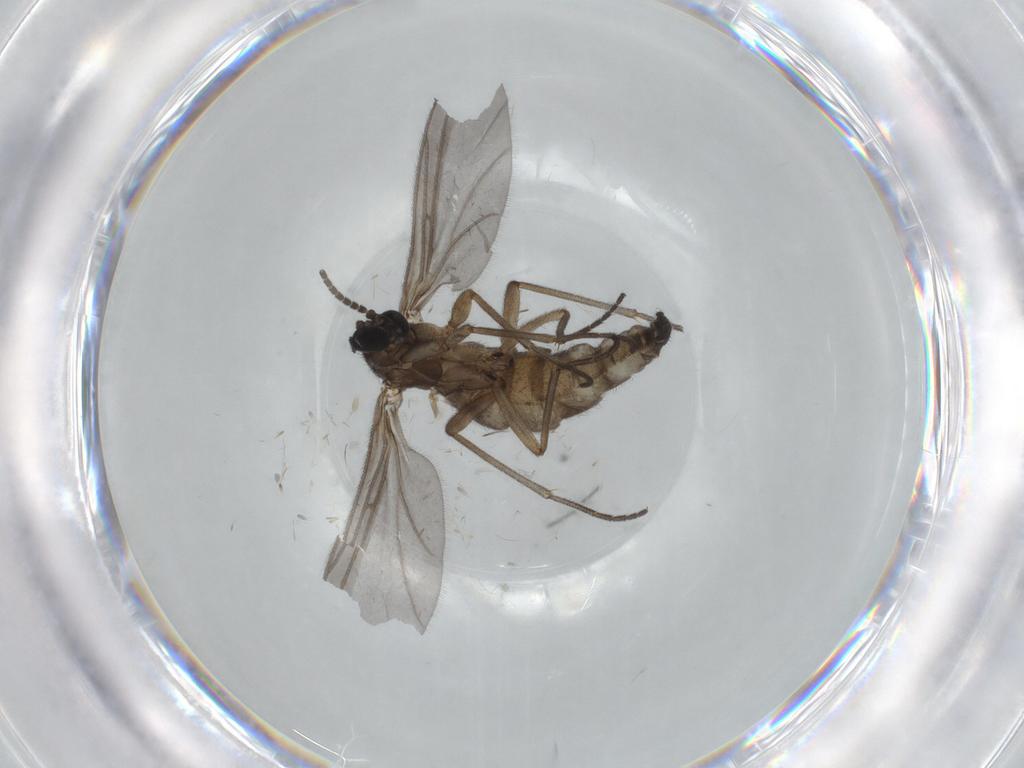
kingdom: Animalia
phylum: Arthropoda
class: Insecta
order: Diptera
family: Sciaridae
